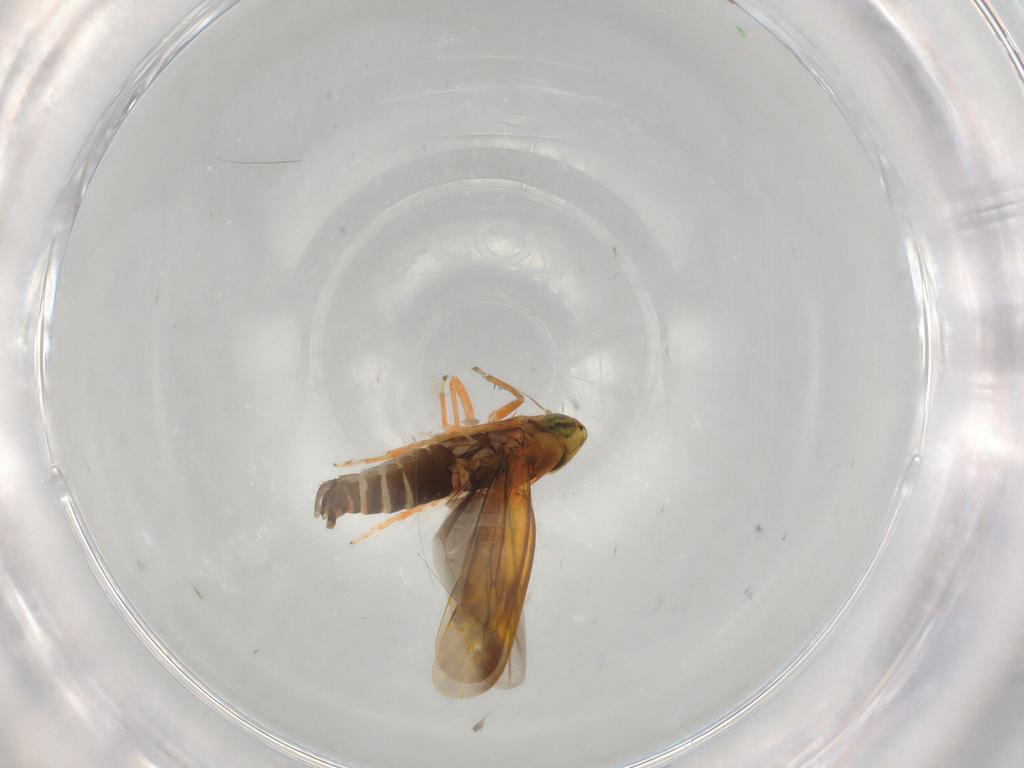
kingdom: Animalia
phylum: Arthropoda
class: Insecta
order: Hemiptera
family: Cicadellidae
